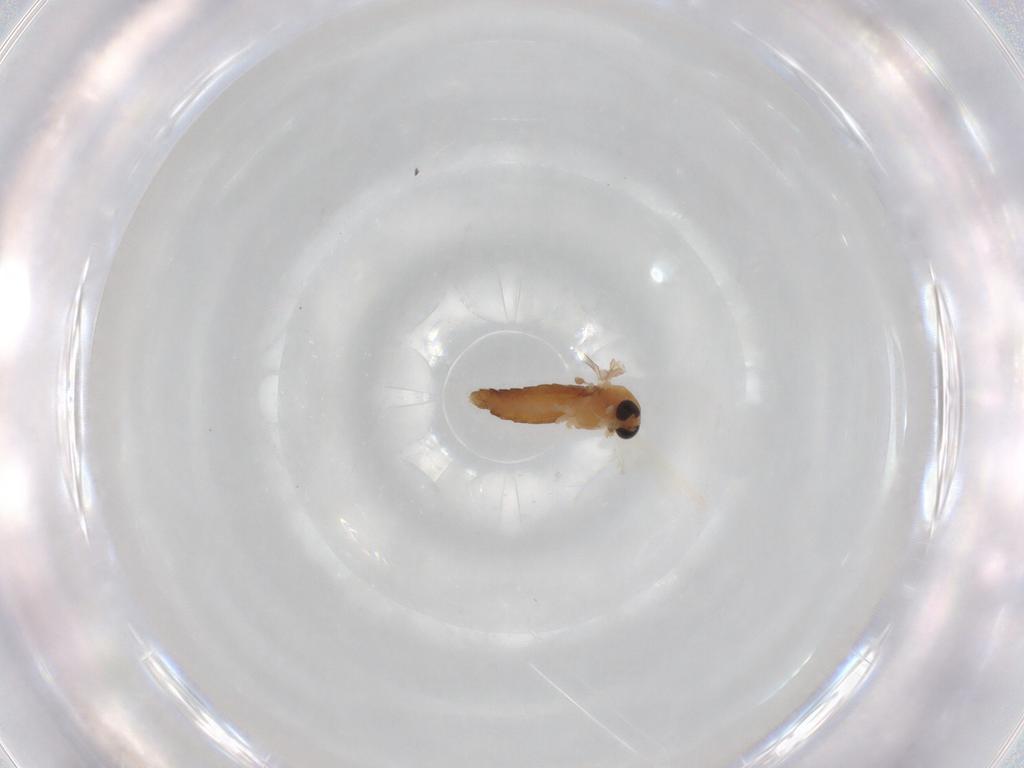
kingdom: Animalia
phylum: Arthropoda
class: Insecta
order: Diptera
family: Chironomidae
